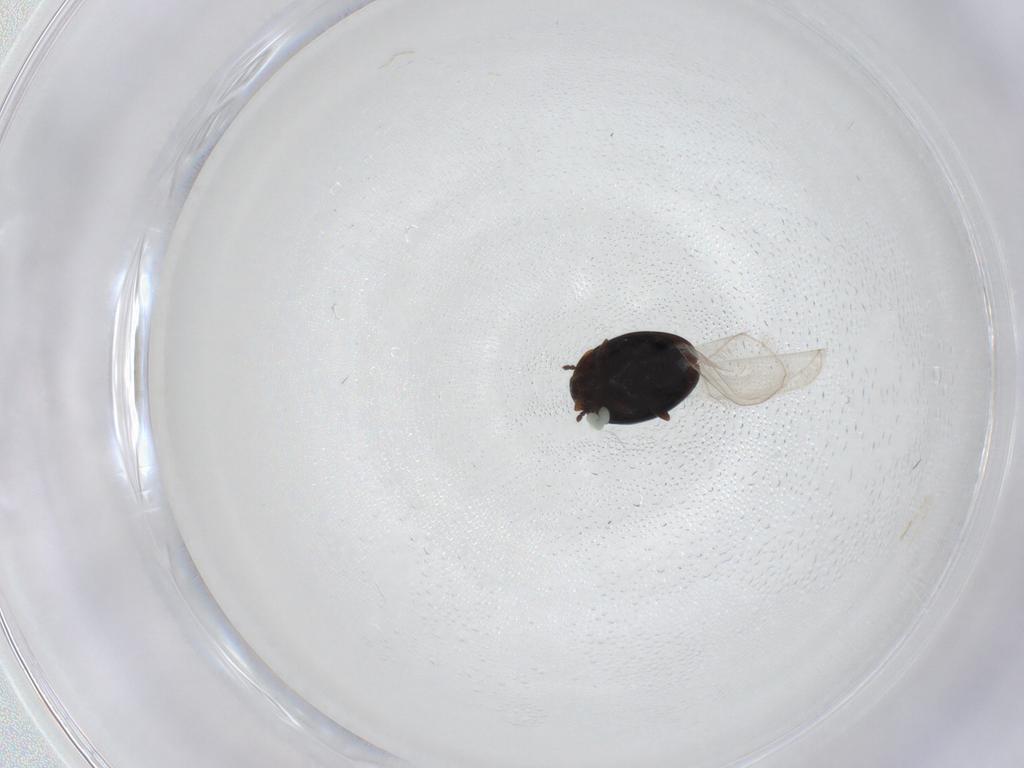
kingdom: Animalia
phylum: Arthropoda
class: Insecta
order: Coleoptera
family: Corylophidae
